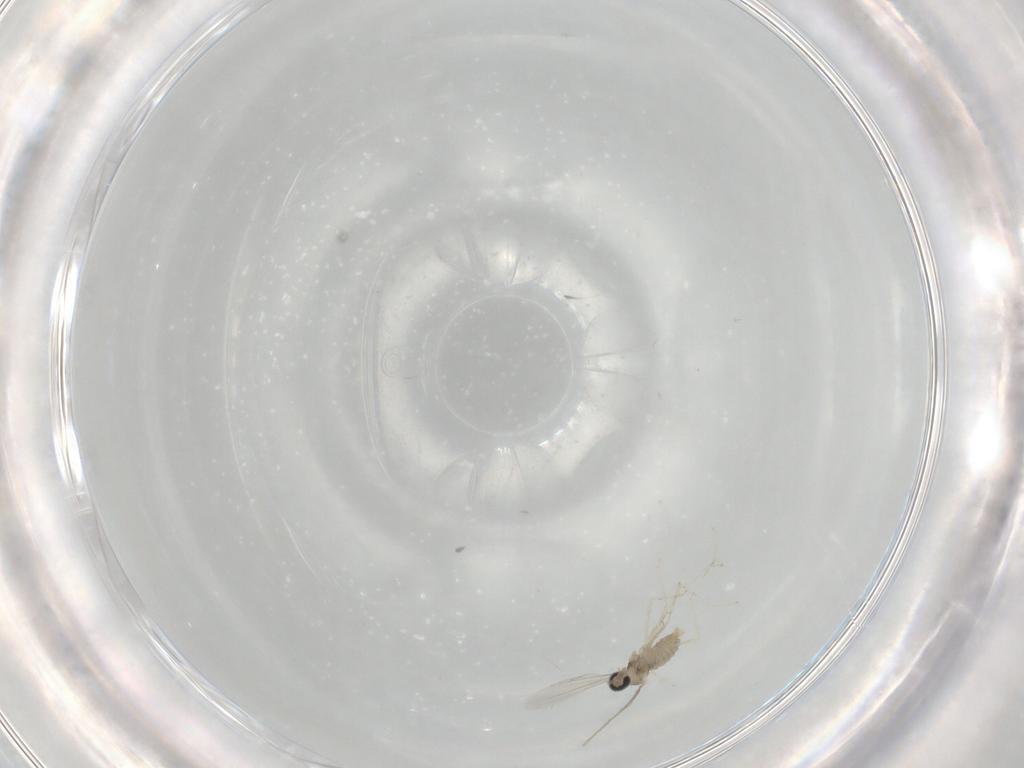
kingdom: Animalia
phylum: Arthropoda
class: Insecta
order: Diptera
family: Cecidomyiidae
